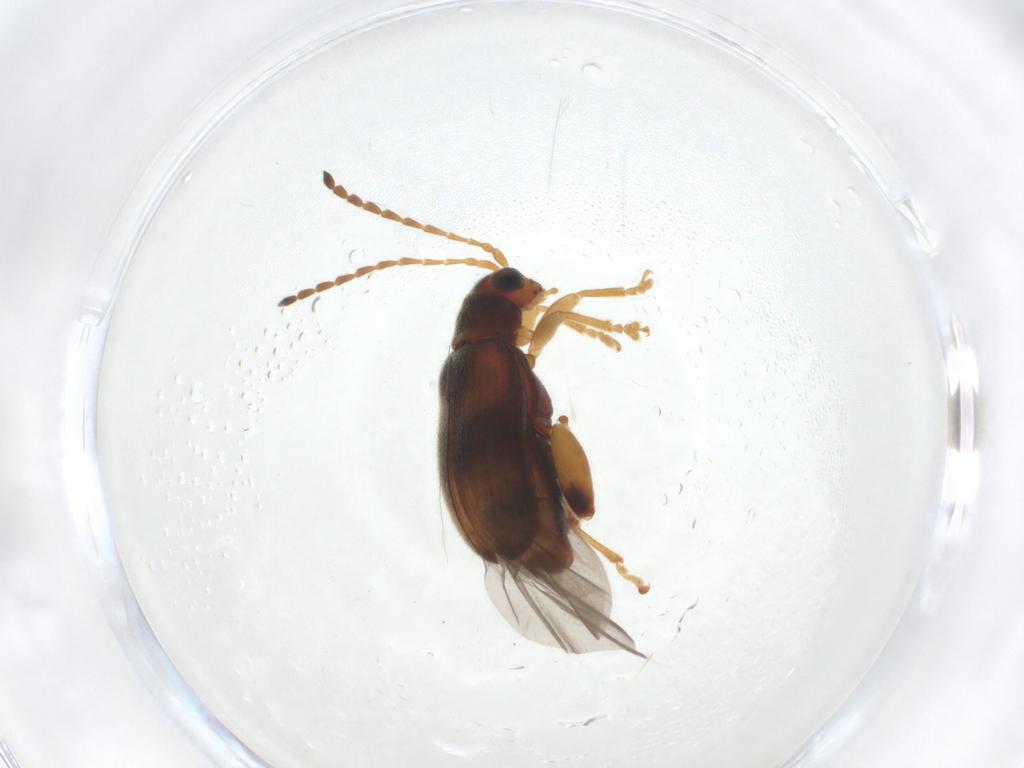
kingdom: Animalia
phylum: Arthropoda
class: Insecta
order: Coleoptera
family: Chrysomelidae
